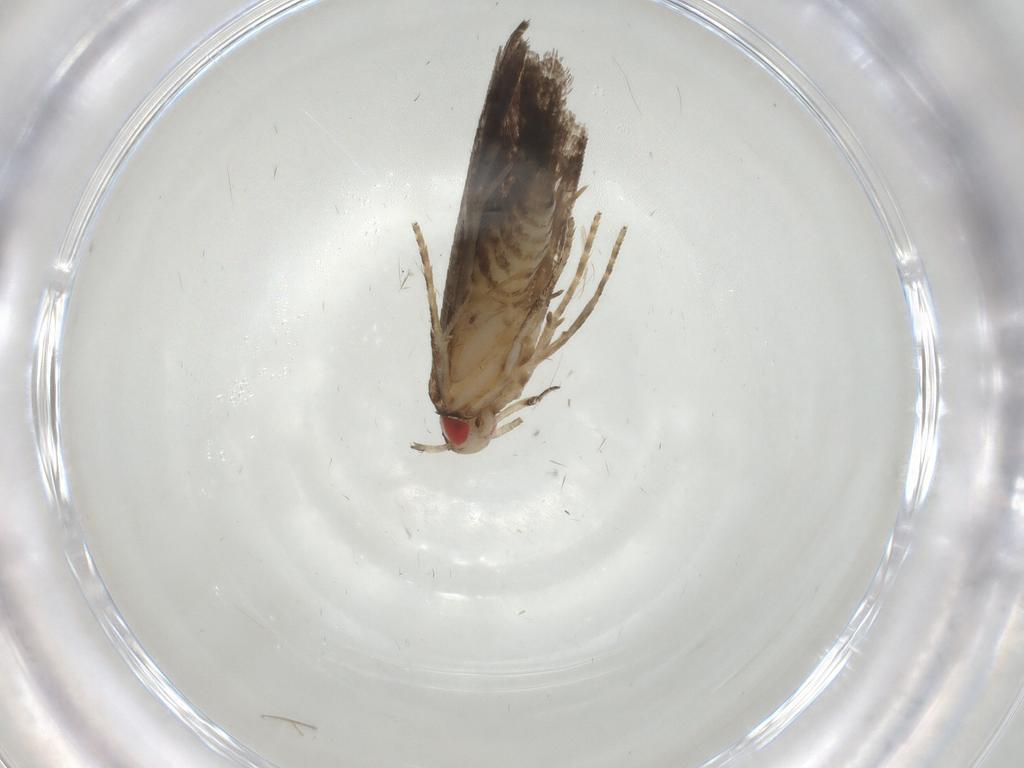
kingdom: Animalia
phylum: Arthropoda
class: Insecta
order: Lepidoptera
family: Gelechiidae
